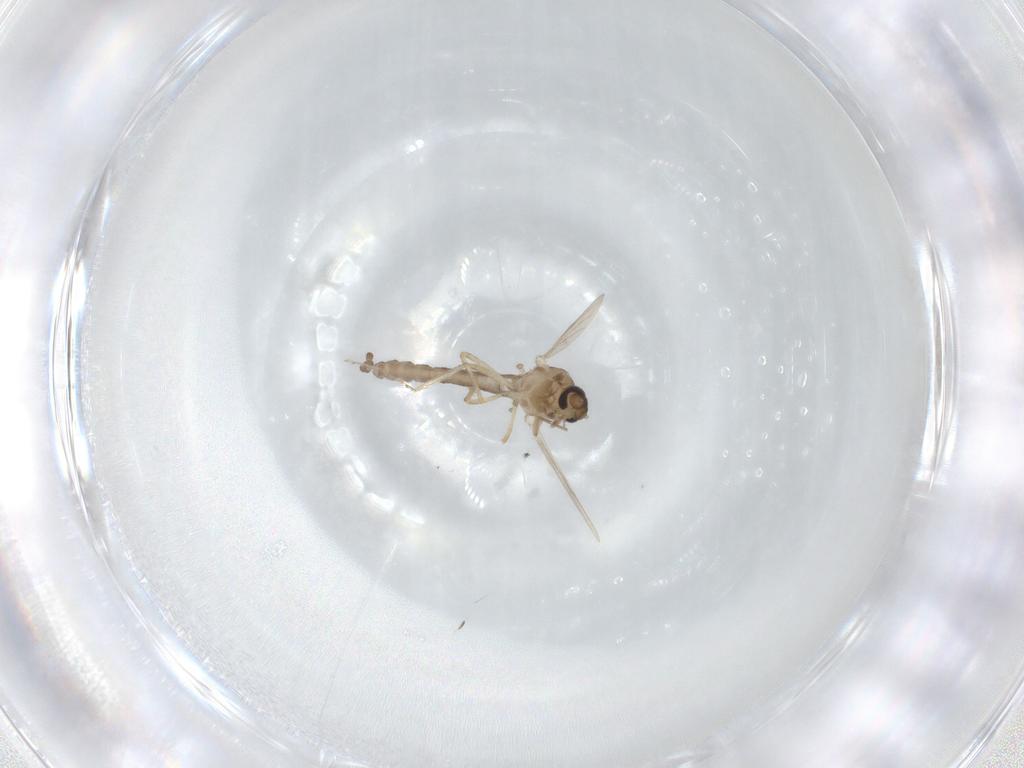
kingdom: Animalia
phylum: Arthropoda
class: Insecta
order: Diptera
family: Ceratopogonidae
